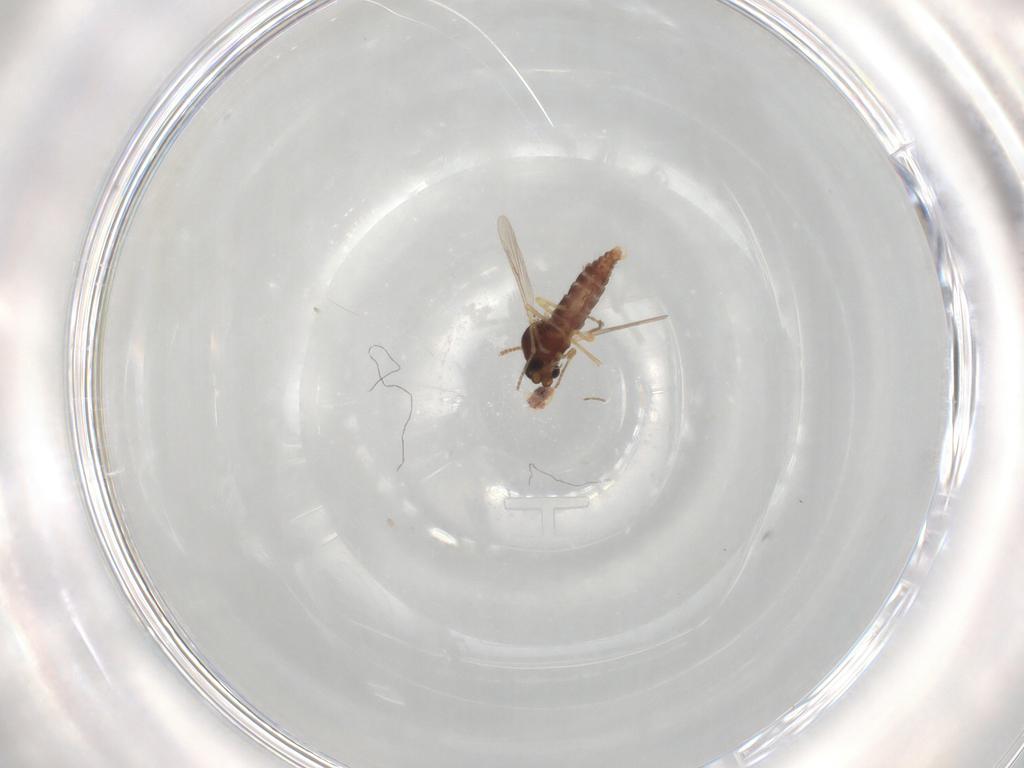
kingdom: Animalia
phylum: Arthropoda
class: Insecta
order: Diptera
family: Ceratopogonidae
